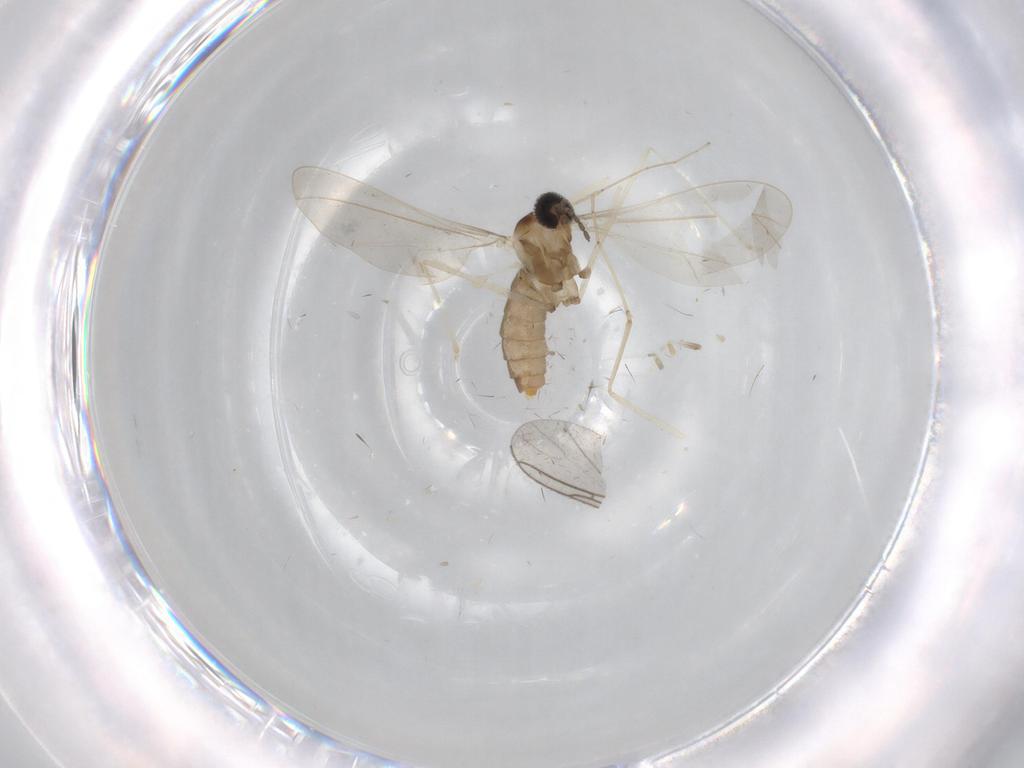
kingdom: Animalia
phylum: Arthropoda
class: Insecta
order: Diptera
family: Cecidomyiidae
